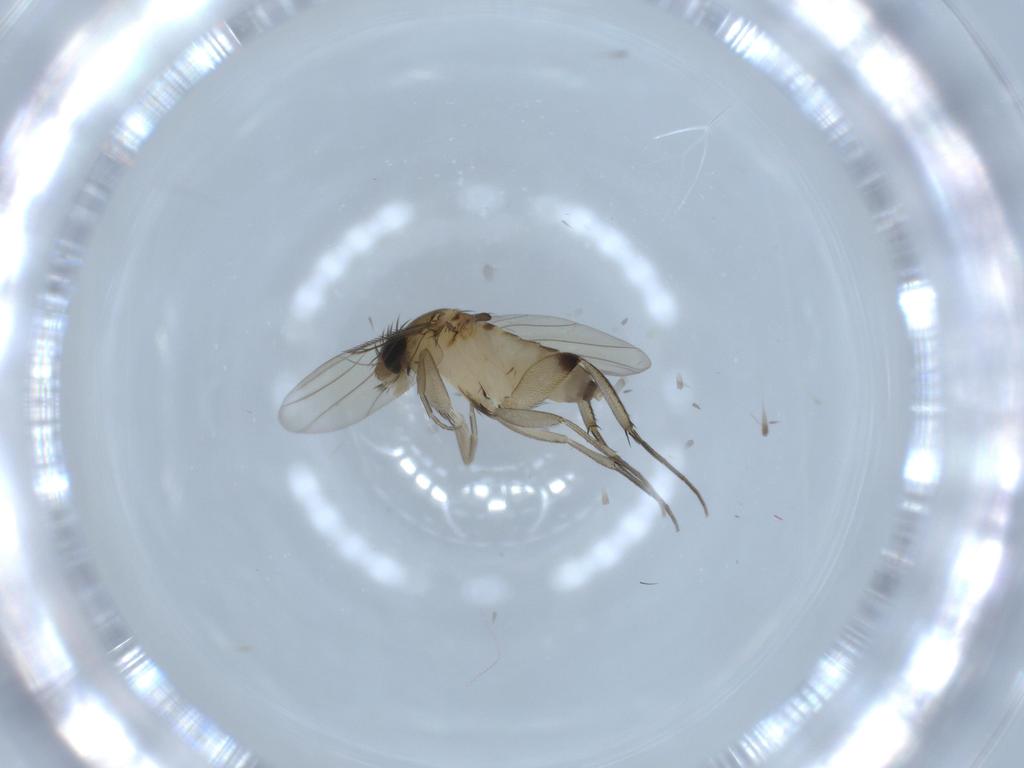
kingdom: Animalia
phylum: Arthropoda
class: Insecta
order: Diptera
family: Phoridae
